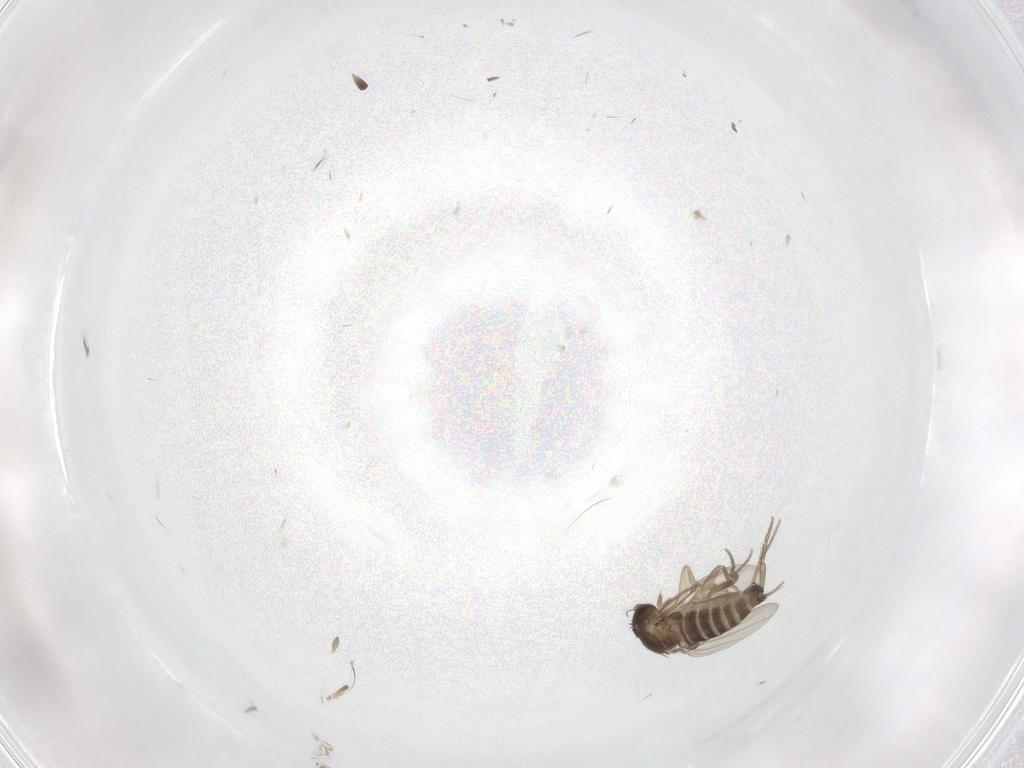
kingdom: Animalia
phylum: Arthropoda
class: Insecta
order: Diptera
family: Phoridae
